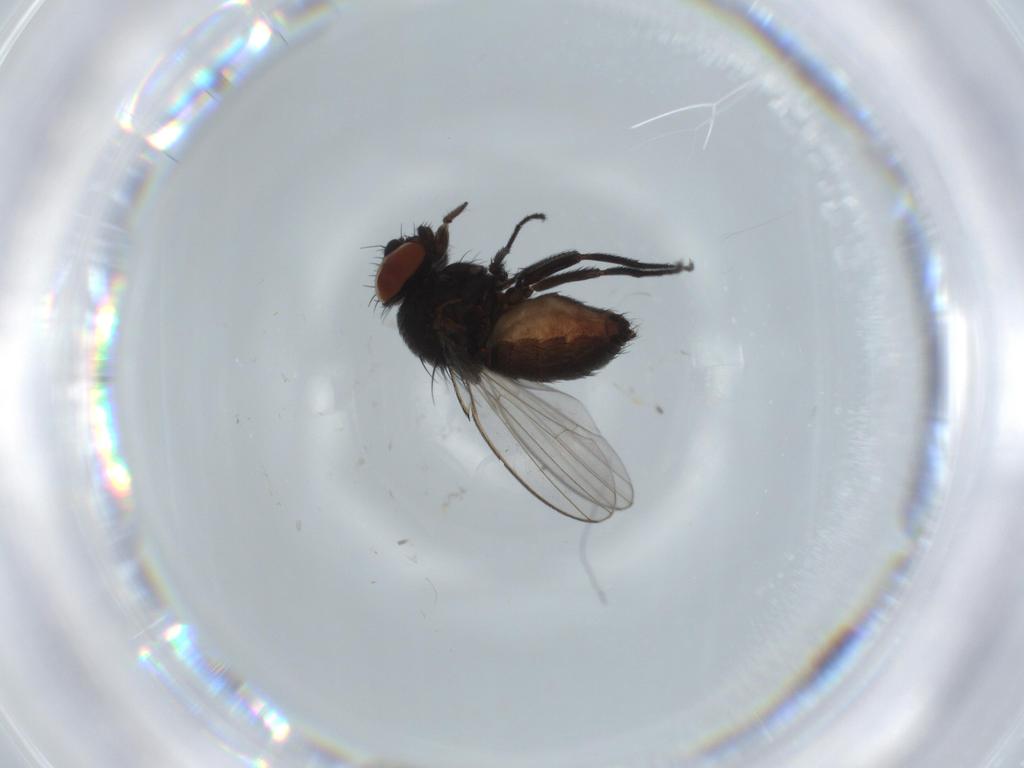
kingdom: Animalia
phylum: Arthropoda
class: Insecta
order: Diptera
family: Milichiidae
